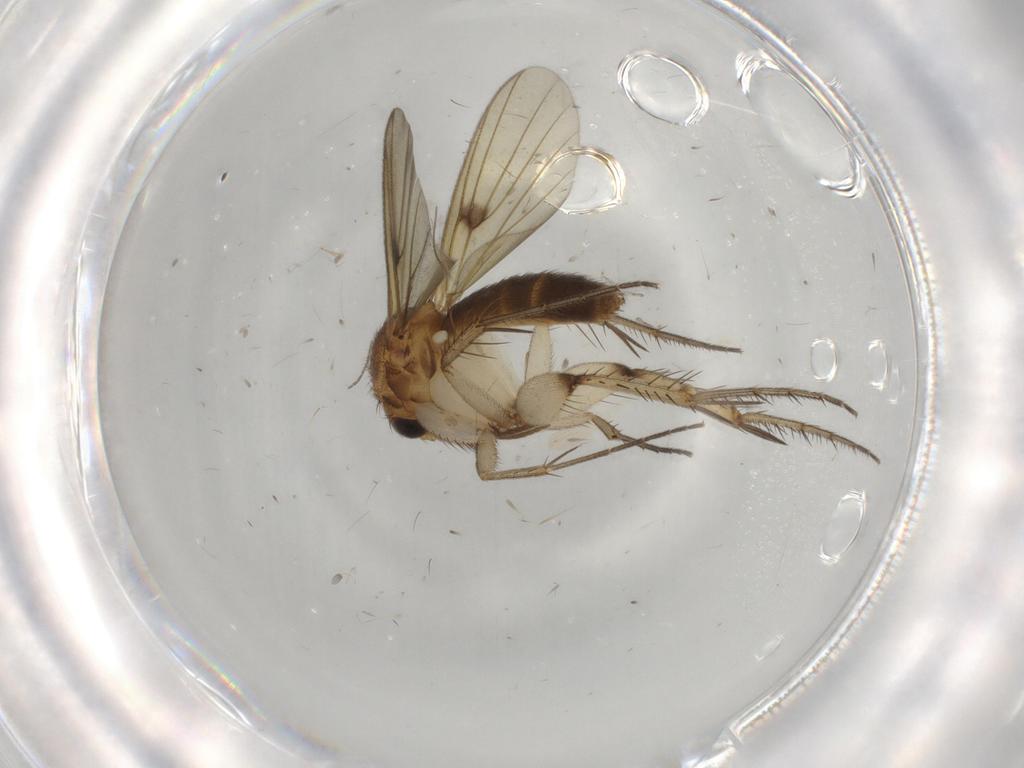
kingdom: Animalia
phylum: Arthropoda
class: Insecta
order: Diptera
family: Chironomidae
